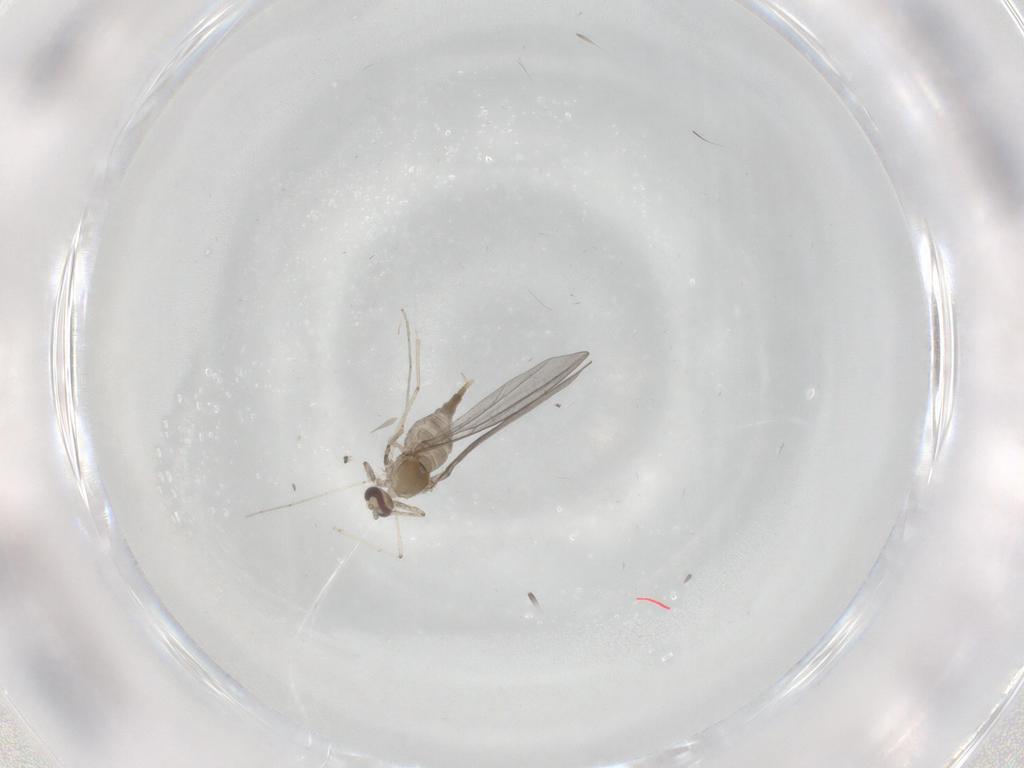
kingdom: Animalia
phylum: Arthropoda
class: Insecta
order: Diptera
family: Cecidomyiidae
